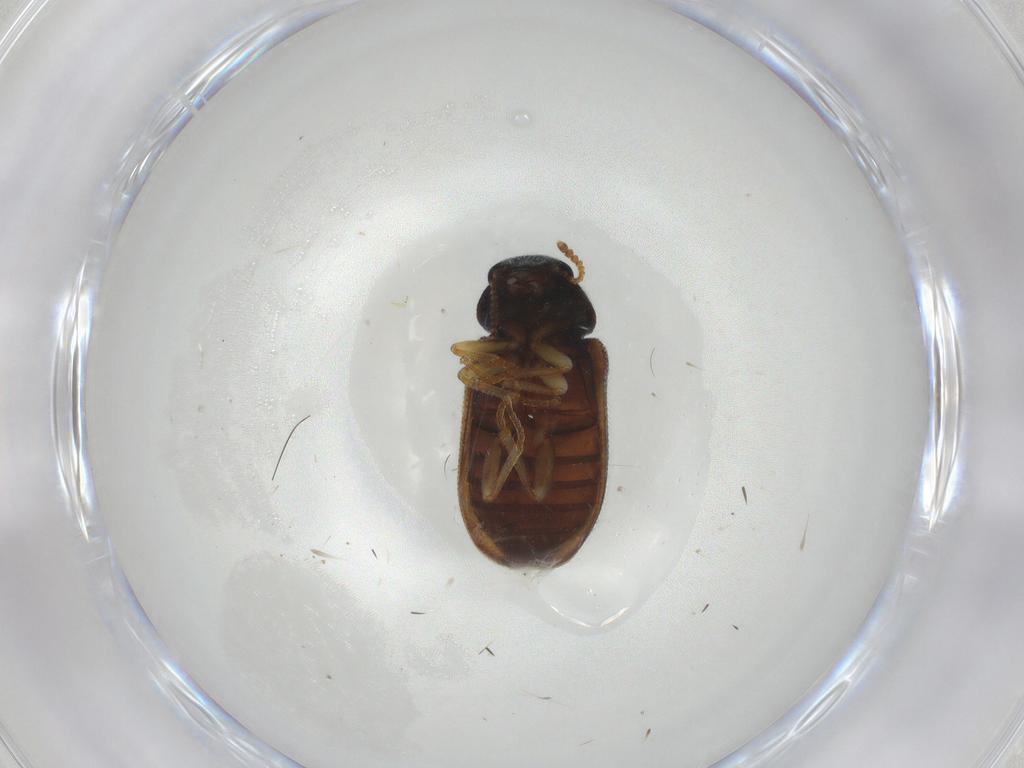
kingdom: Animalia
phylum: Arthropoda
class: Insecta
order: Coleoptera
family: Melyridae
